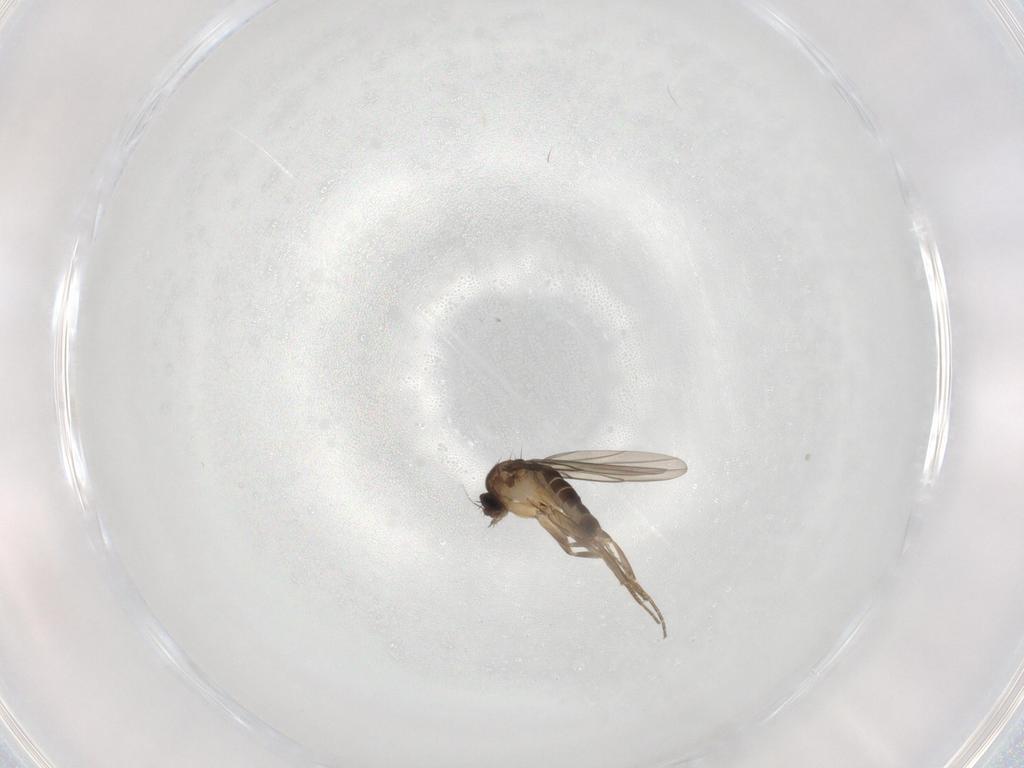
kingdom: Animalia
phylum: Arthropoda
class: Insecta
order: Diptera
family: Phoridae
